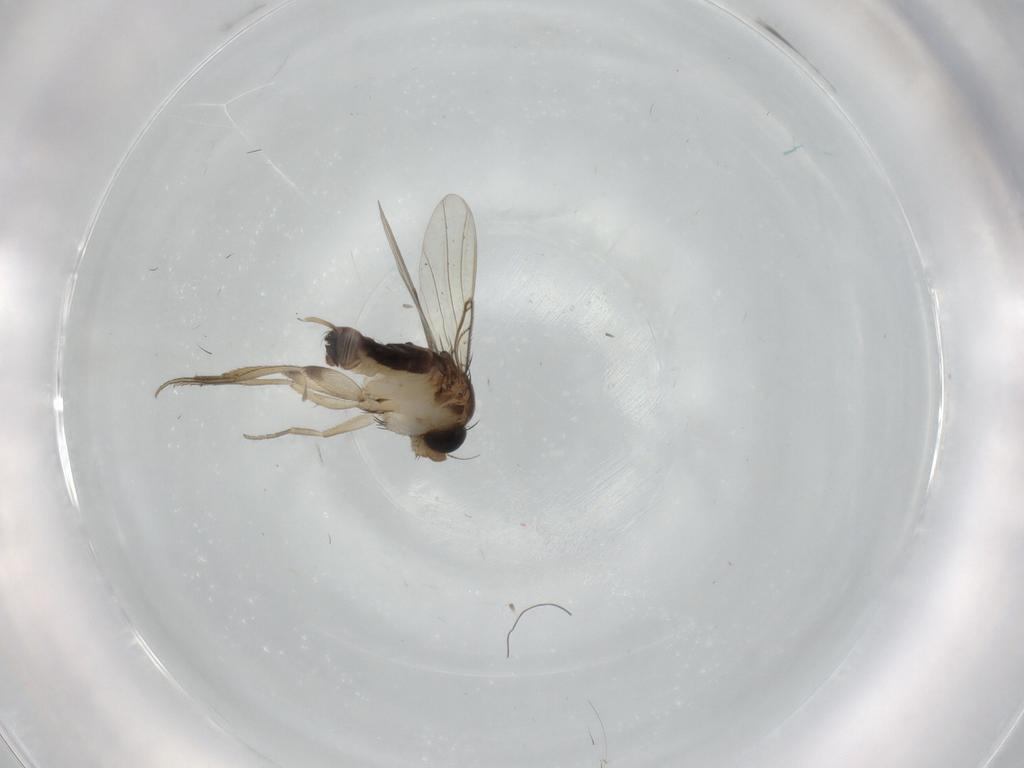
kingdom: Animalia
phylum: Arthropoda
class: Insecta
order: Diptera
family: Phoridae
